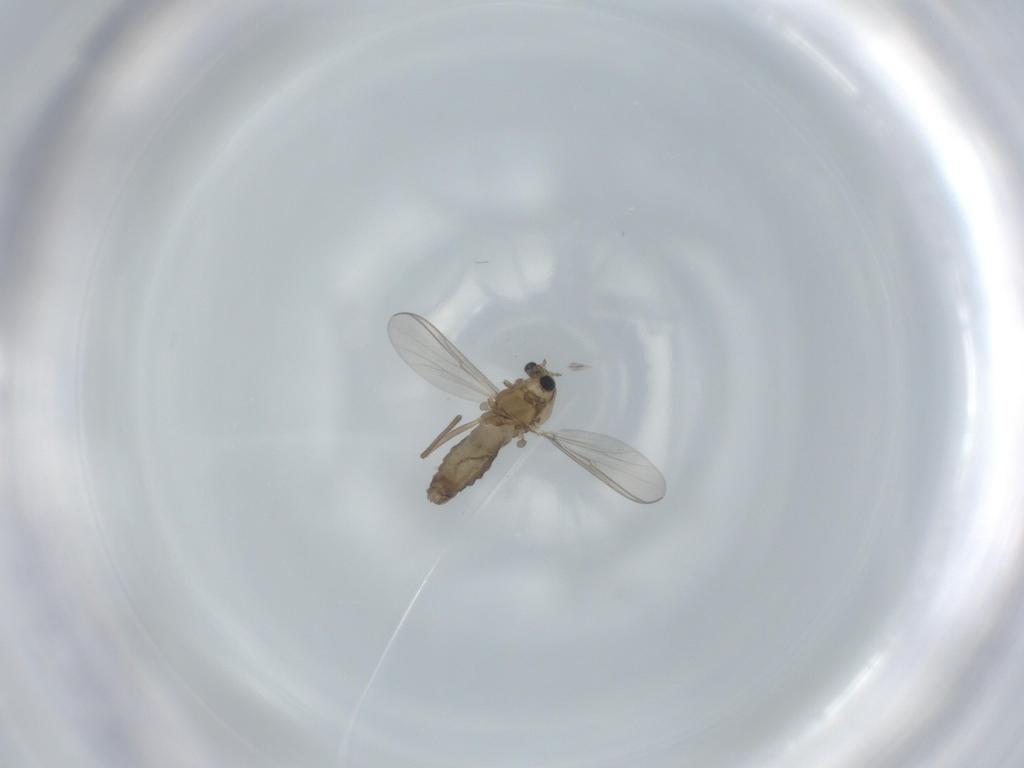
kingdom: Animalia
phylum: Arthropoda
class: Insecta
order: Diptera
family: Chironomidae
